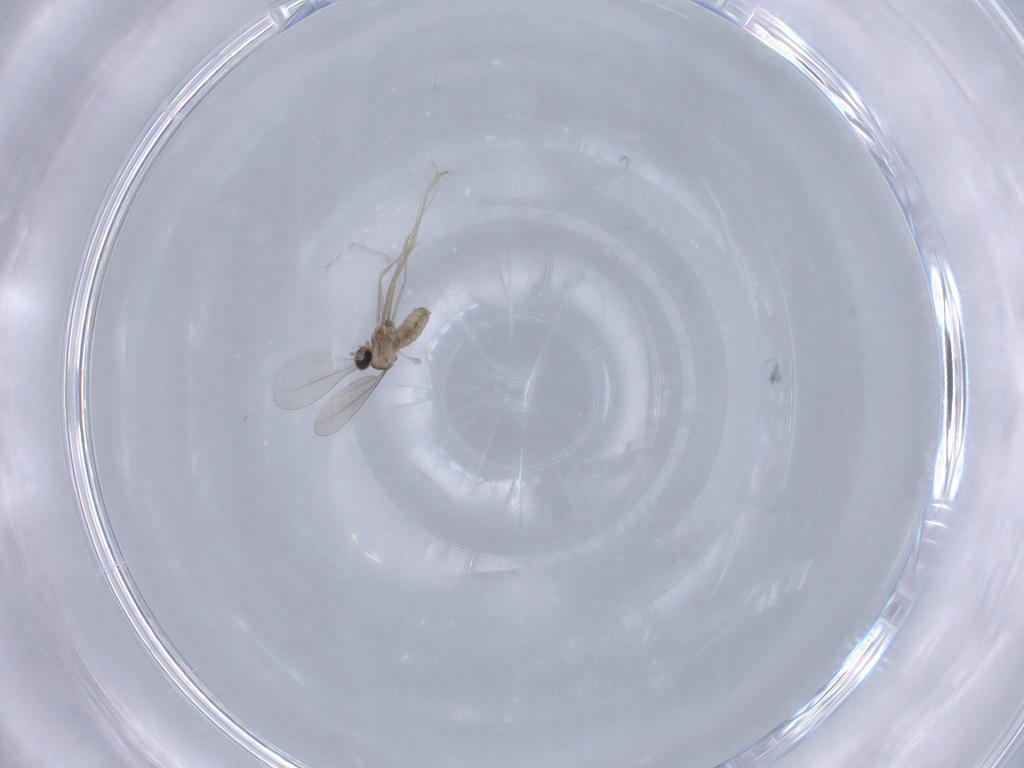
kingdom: Animalia
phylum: Arthropoda
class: Insecta
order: Diptera
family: Cecidomyiidae
